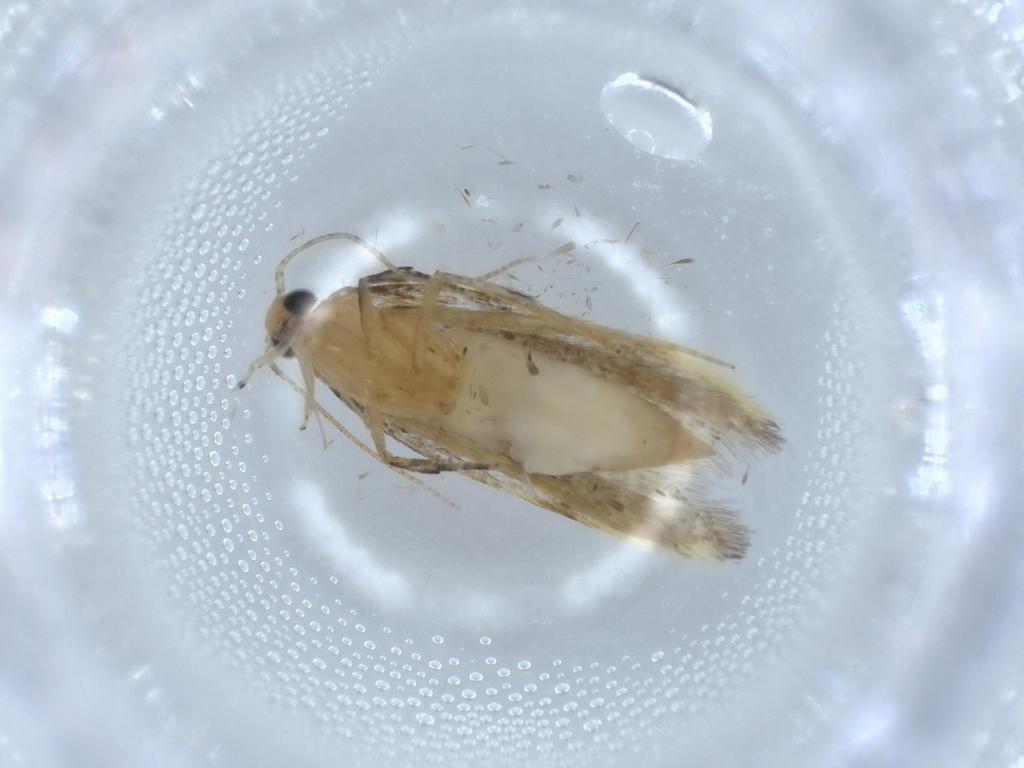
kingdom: Animalia
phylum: Arthropoda
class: Insecta
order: Lepidoptera
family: Autostichidae
